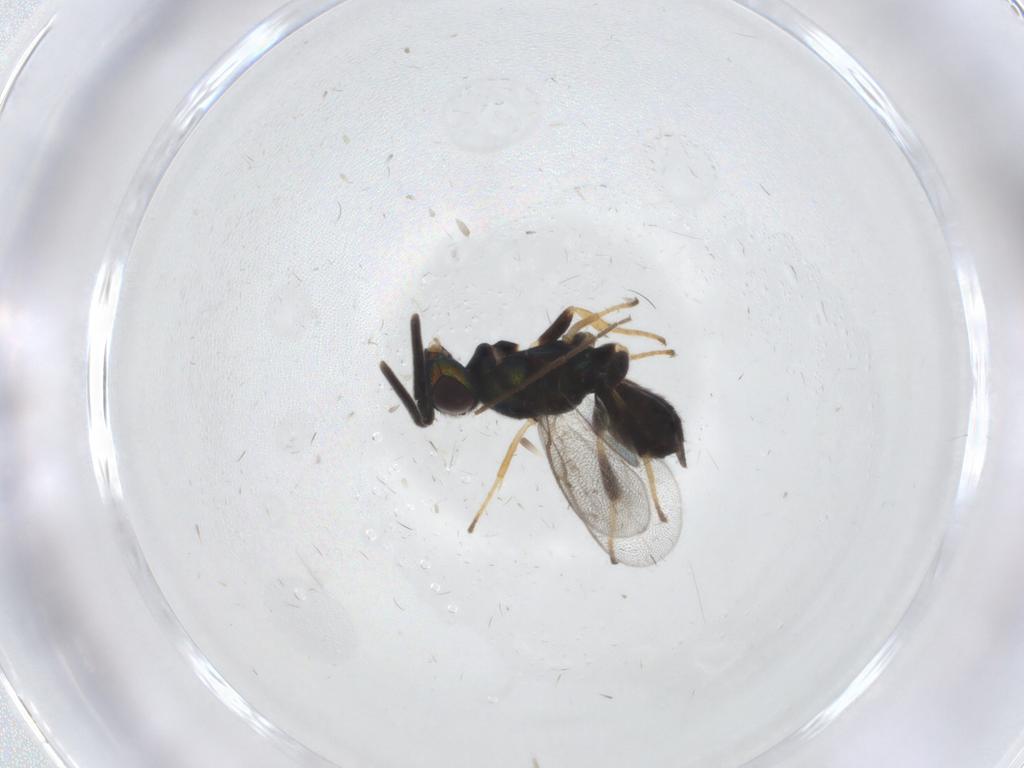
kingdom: Animalia
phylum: Arthropoda
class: Insecta
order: Hymenoptera
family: Eupelmidae
